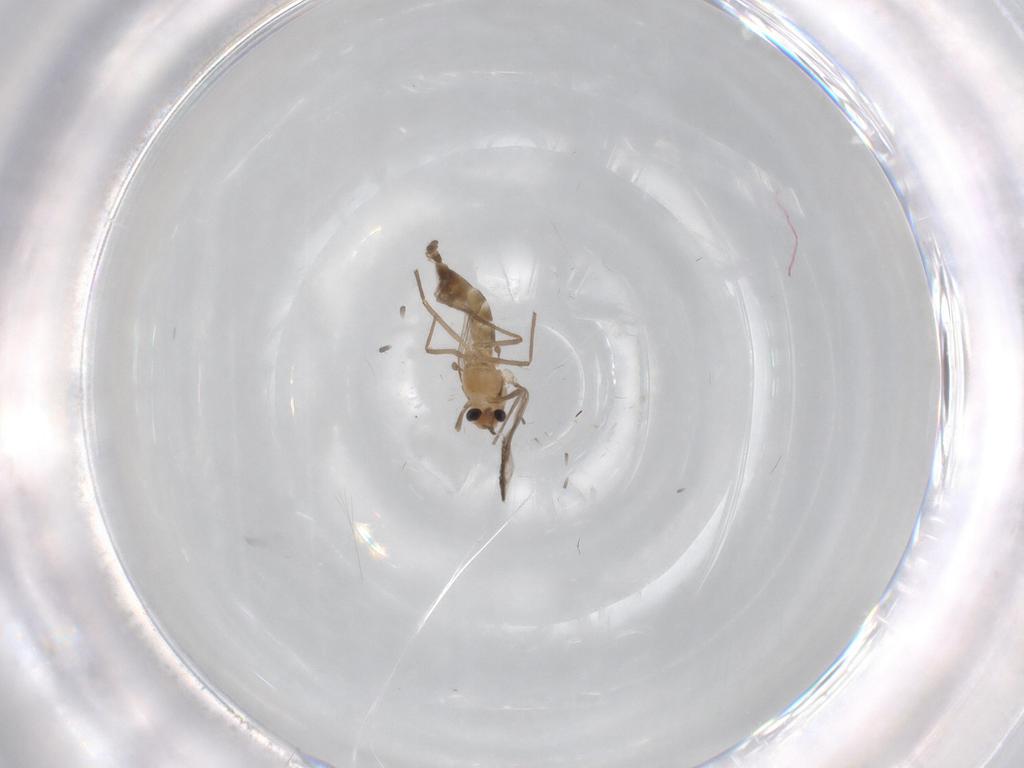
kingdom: Animalia
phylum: Arthropoda
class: Insecta
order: Diptera
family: Chironomidae
